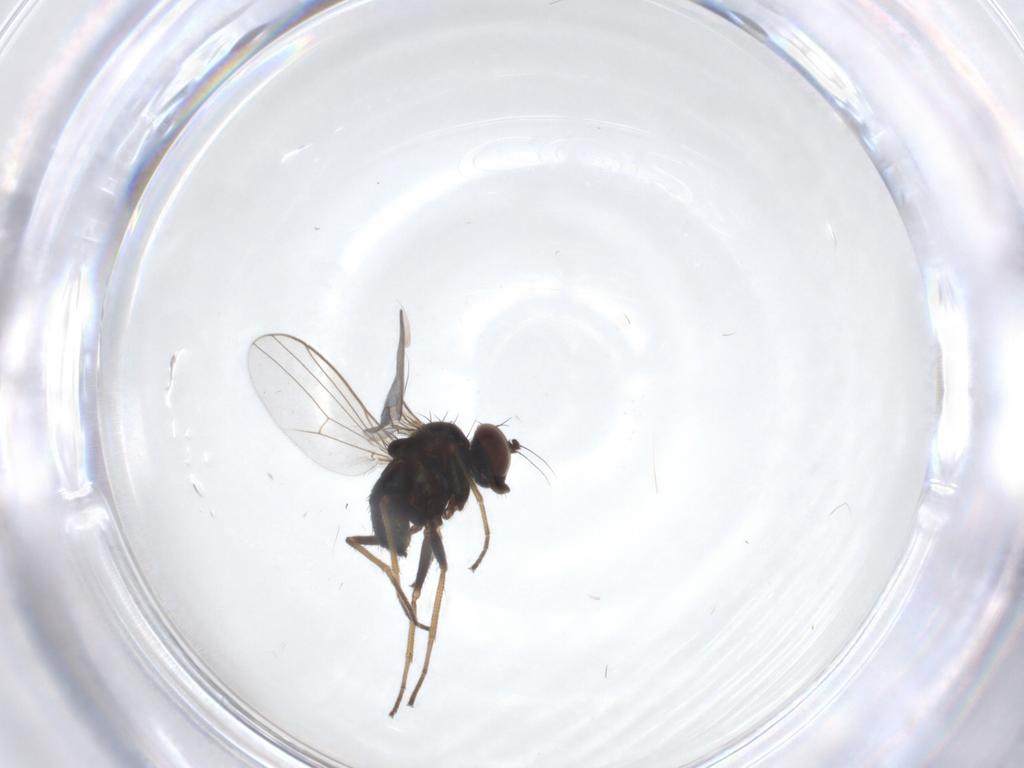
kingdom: Animalia
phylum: Arthropoda
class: Insecta
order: Diptera
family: Dolichopodidae
